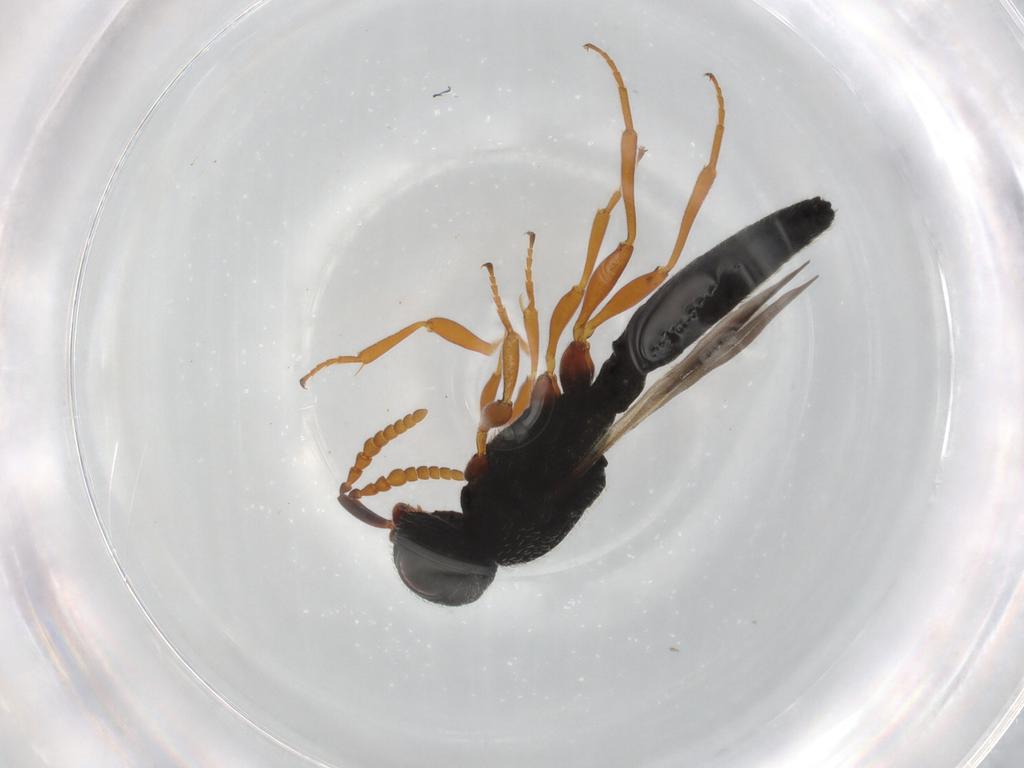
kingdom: Animalia
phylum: Arthropoda
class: Insecta
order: Hymenoptera
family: Scelionidae
